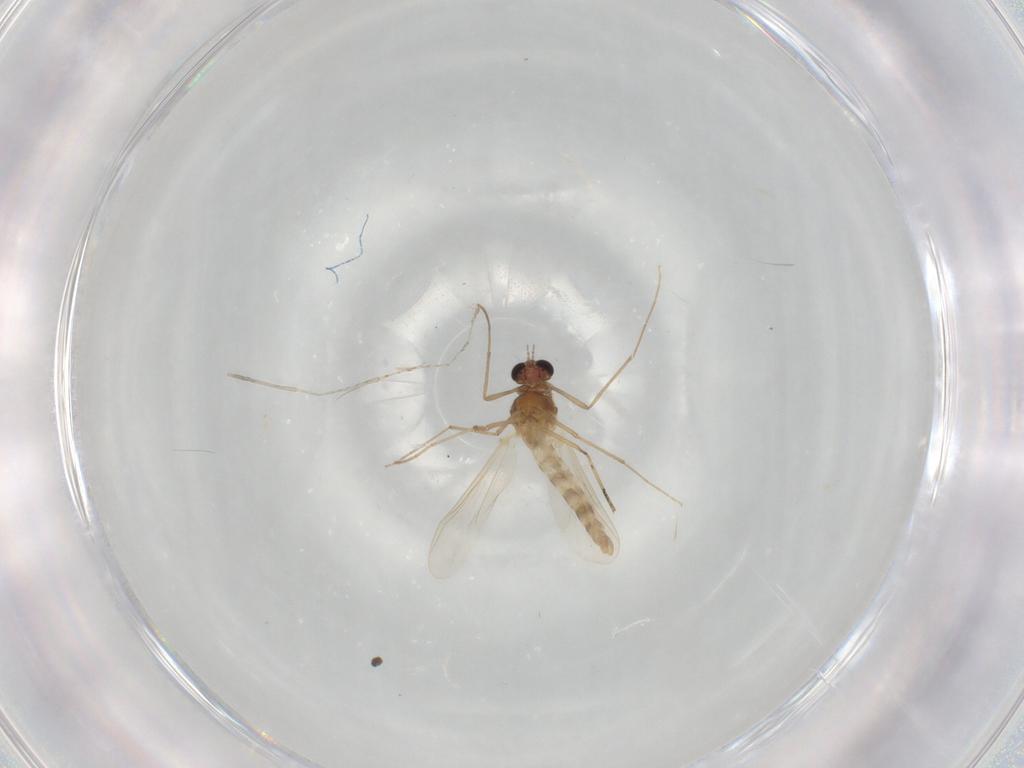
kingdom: Animalia
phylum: Arthropoda
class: Insecta
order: Diptera
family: Chironomidae
